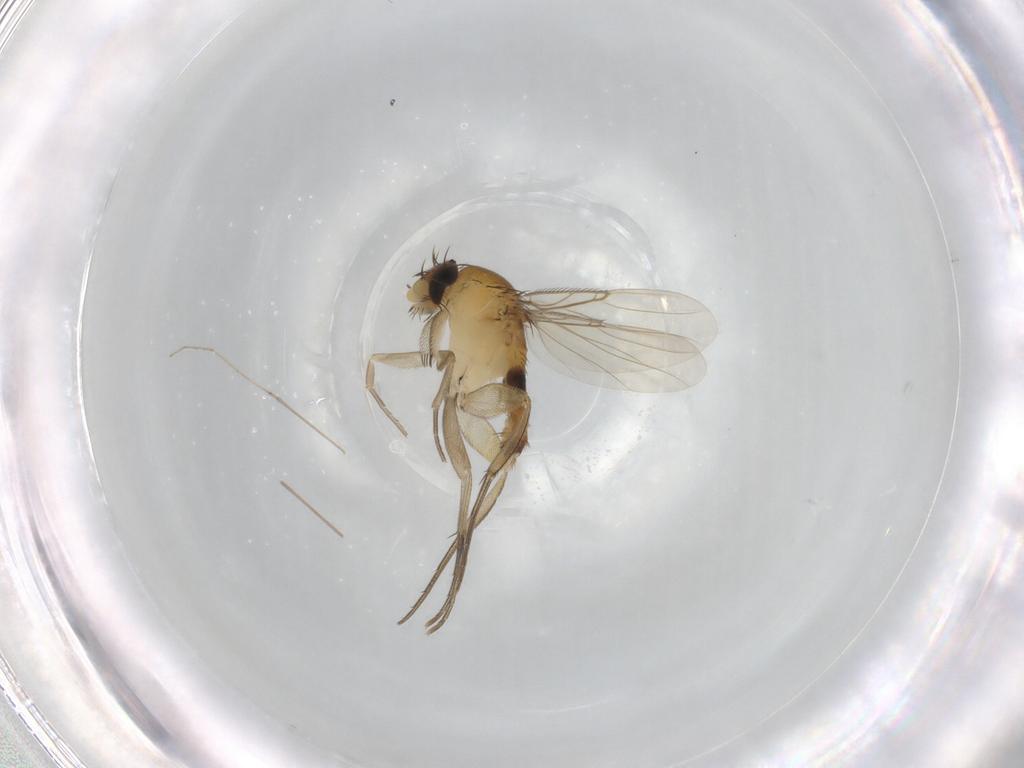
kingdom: Animalia
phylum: Arthropoda
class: Insecta
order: Diptera
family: Phoridae
